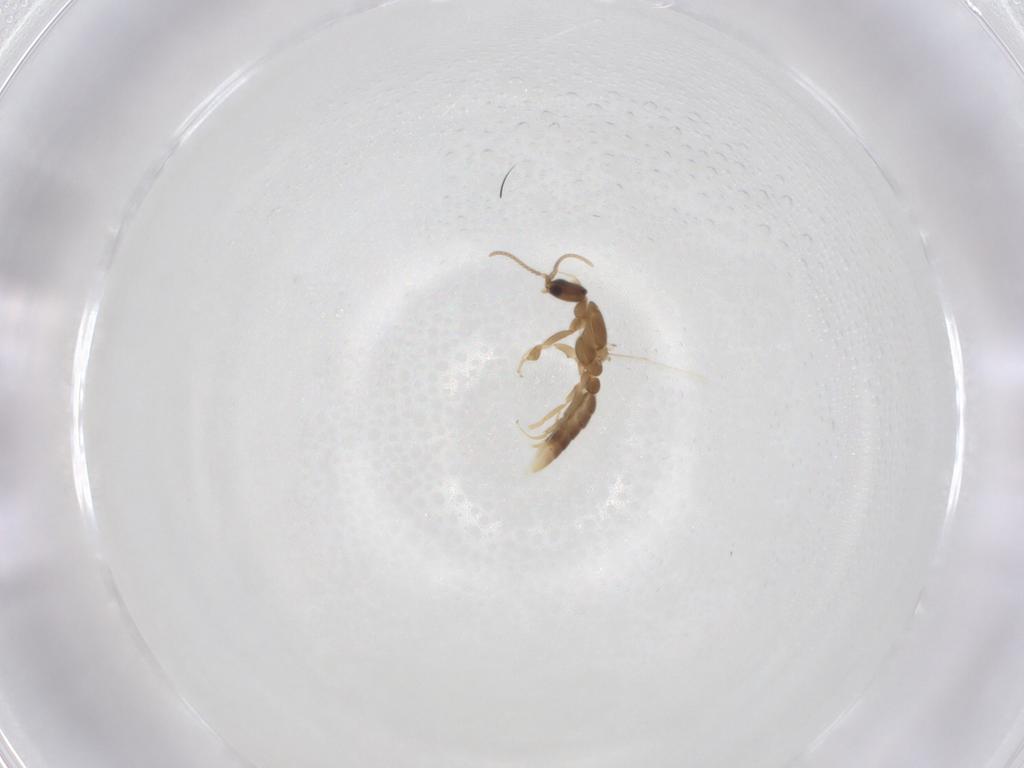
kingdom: Animalia
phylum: Arthropoda
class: Insecta
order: Hymenoptera
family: Formicidae
